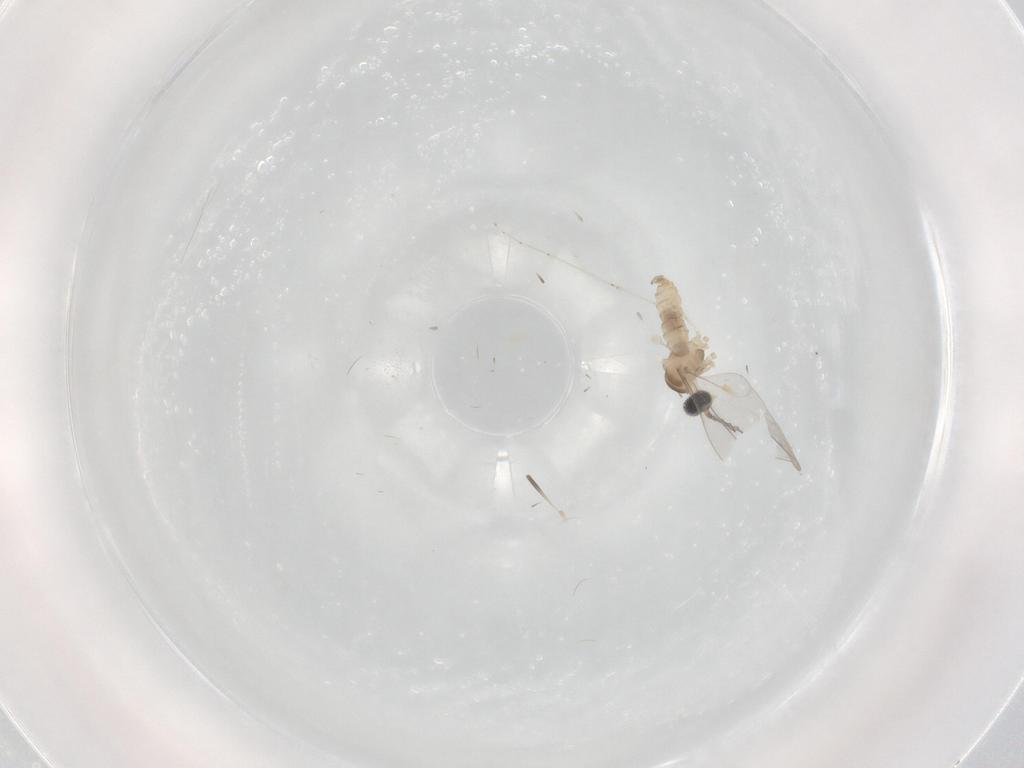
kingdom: Animalia
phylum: Arthropoda
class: Insecta
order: Diptera
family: Cecidomyiidae
